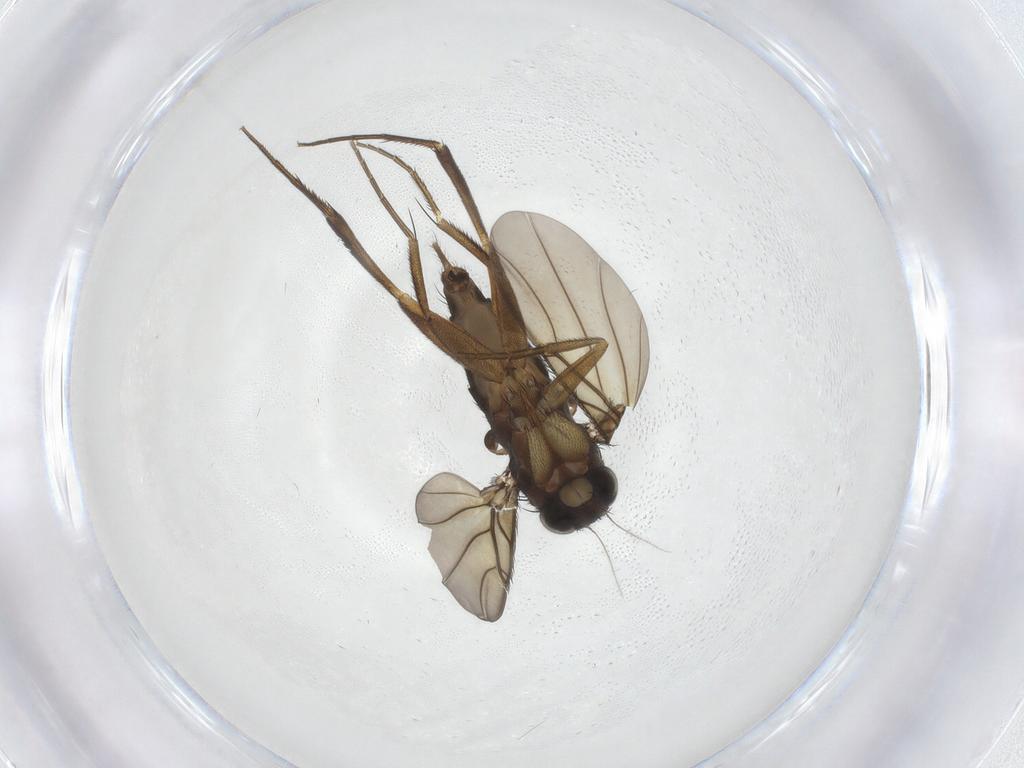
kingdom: Animalia
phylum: Arthropoda
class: Insecta
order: Diptera
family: Phoridae
